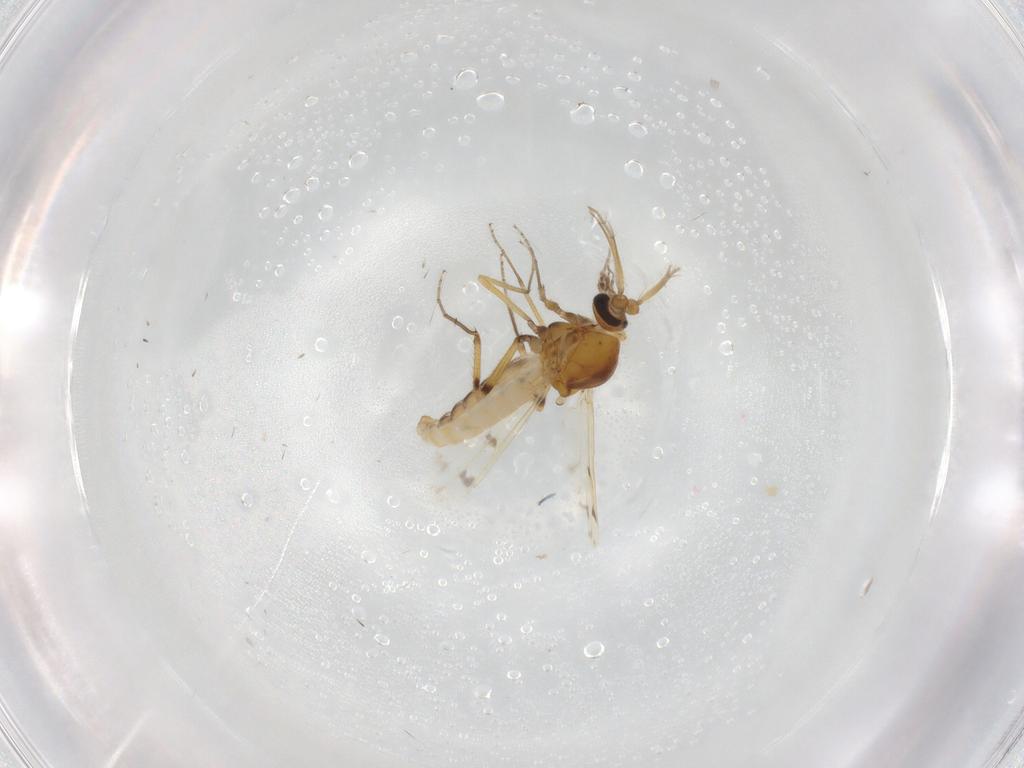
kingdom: Animalia
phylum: Arthropoda
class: Insecta
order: Diptera
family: Ceratopogonidae
